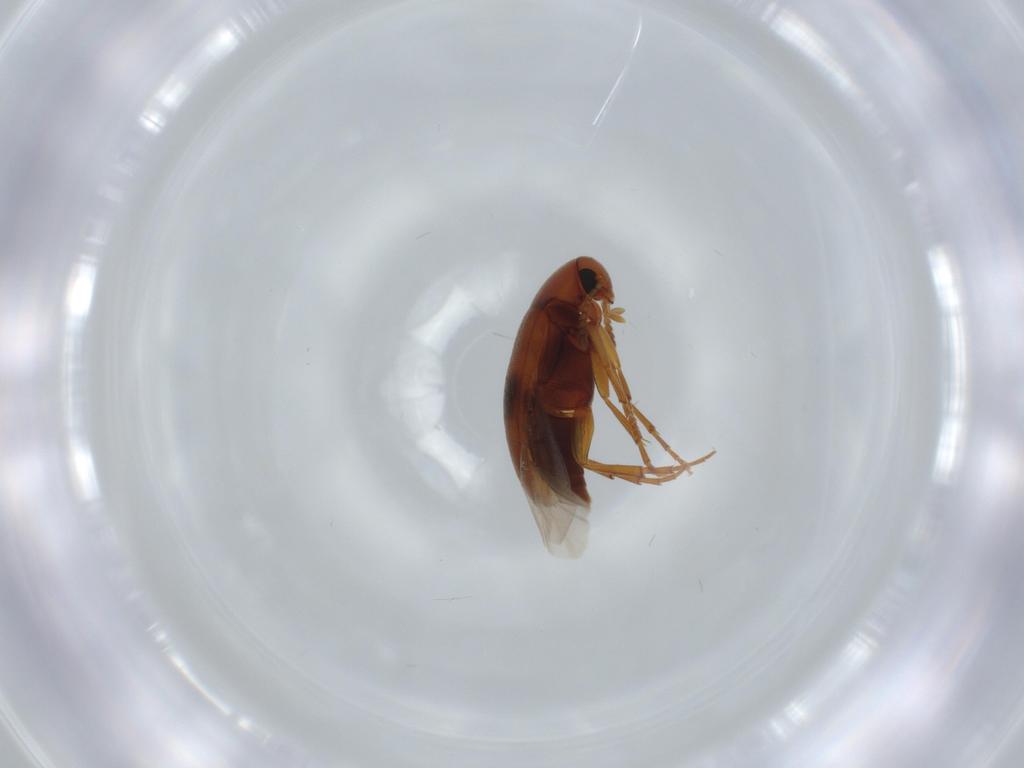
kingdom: Animalia
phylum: Arthropoda
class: Insecta
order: Coleoptera
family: Scraptiidae
